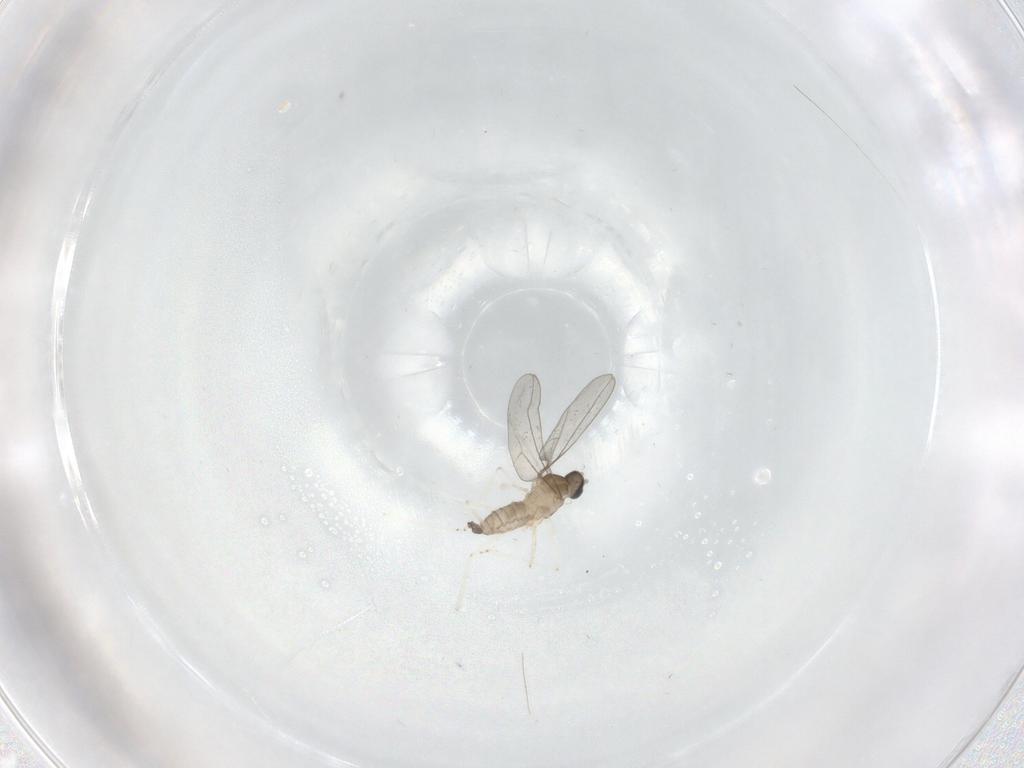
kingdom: Animalia
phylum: Arthropoda
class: Insecta
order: Diptera
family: Cecidomyiidae
